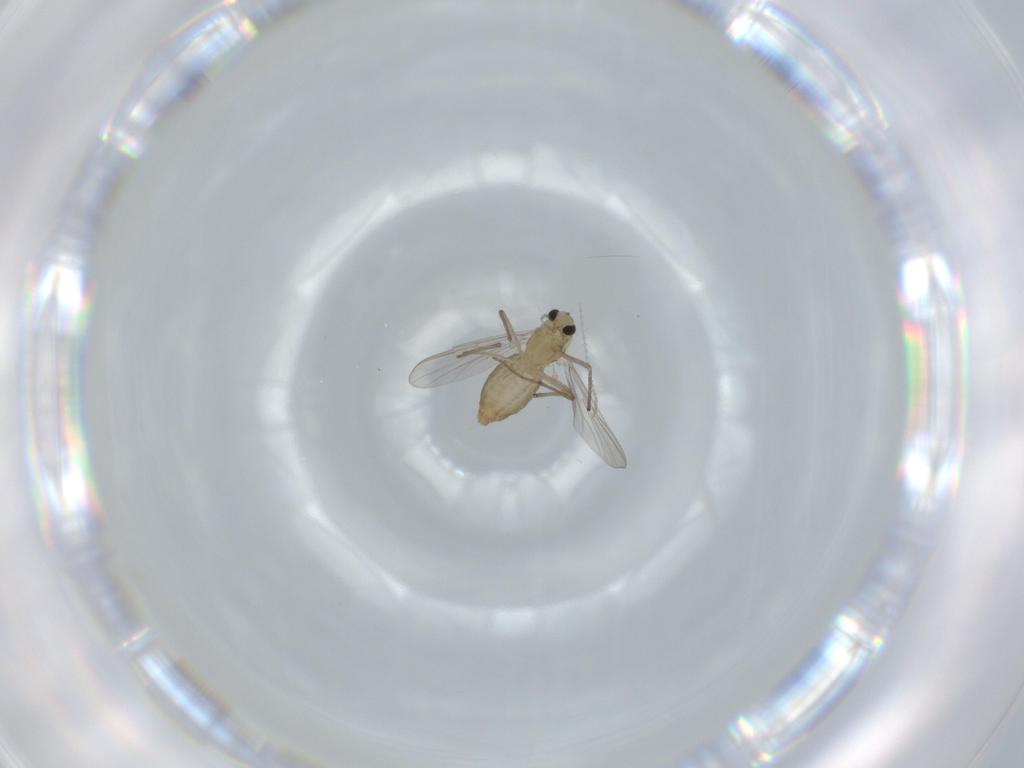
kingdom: Animalia
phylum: Arthropoda
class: Insecta
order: Diptera
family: Chironomidae
